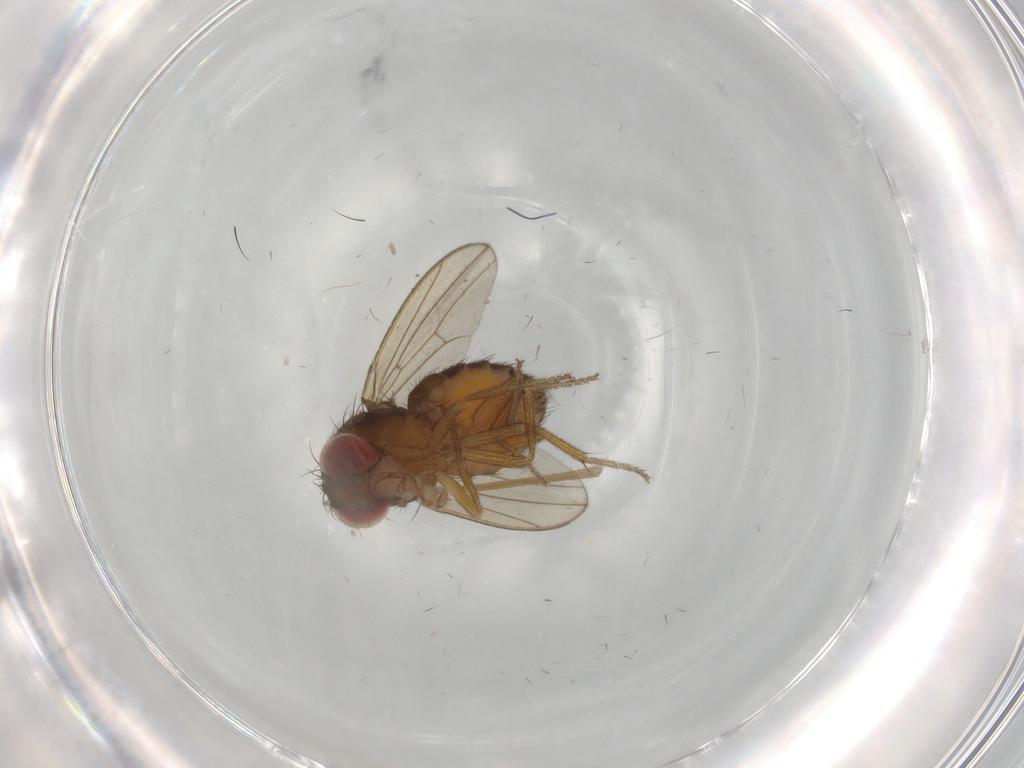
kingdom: Animalia
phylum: Arthropoda
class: Insecta
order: Diptera
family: Drosophilidae
